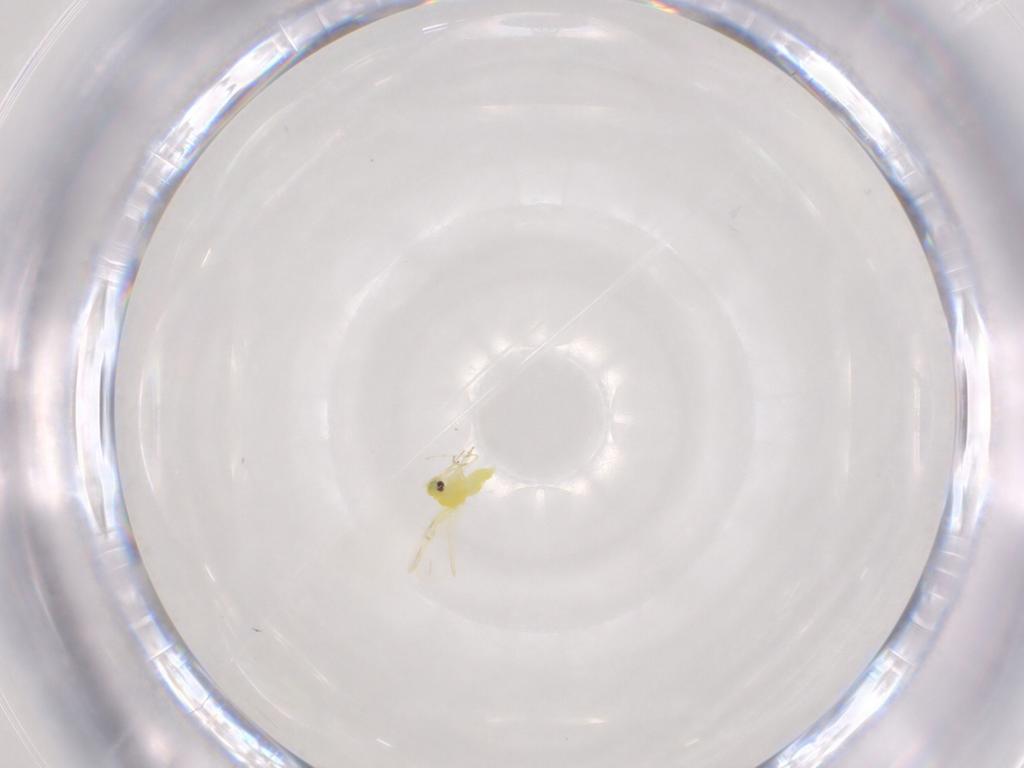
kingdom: Animalia
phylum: Arthropoda
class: Insecta
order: Hemiptera
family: Aleyrodidae
